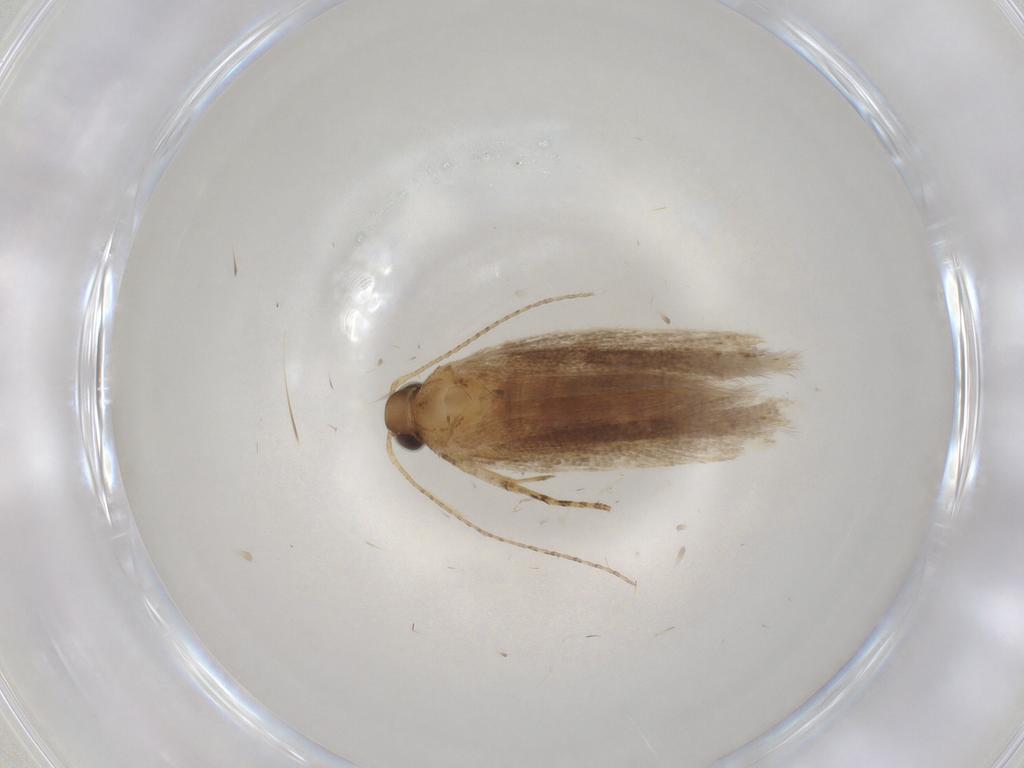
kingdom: Animalia
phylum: Arthropoda
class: Insecta
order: Lepidoptera
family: Gelechiidae
